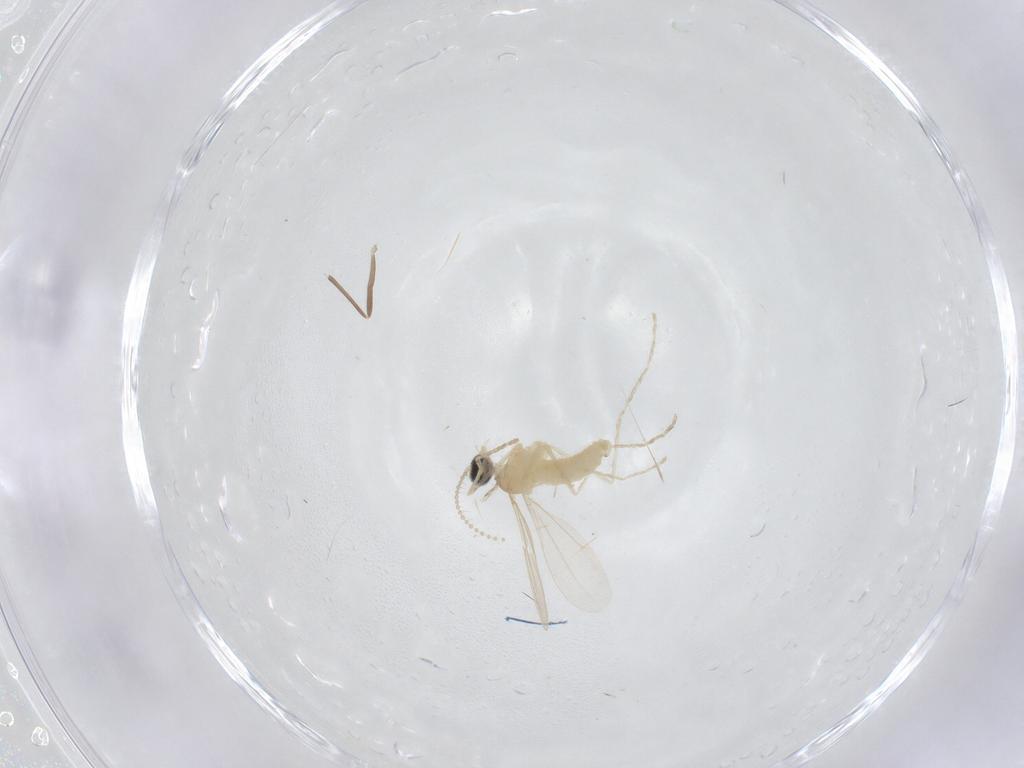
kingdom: Animalia
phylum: Arthropoda
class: Insecta
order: Diptera
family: Cecidomyiidae
